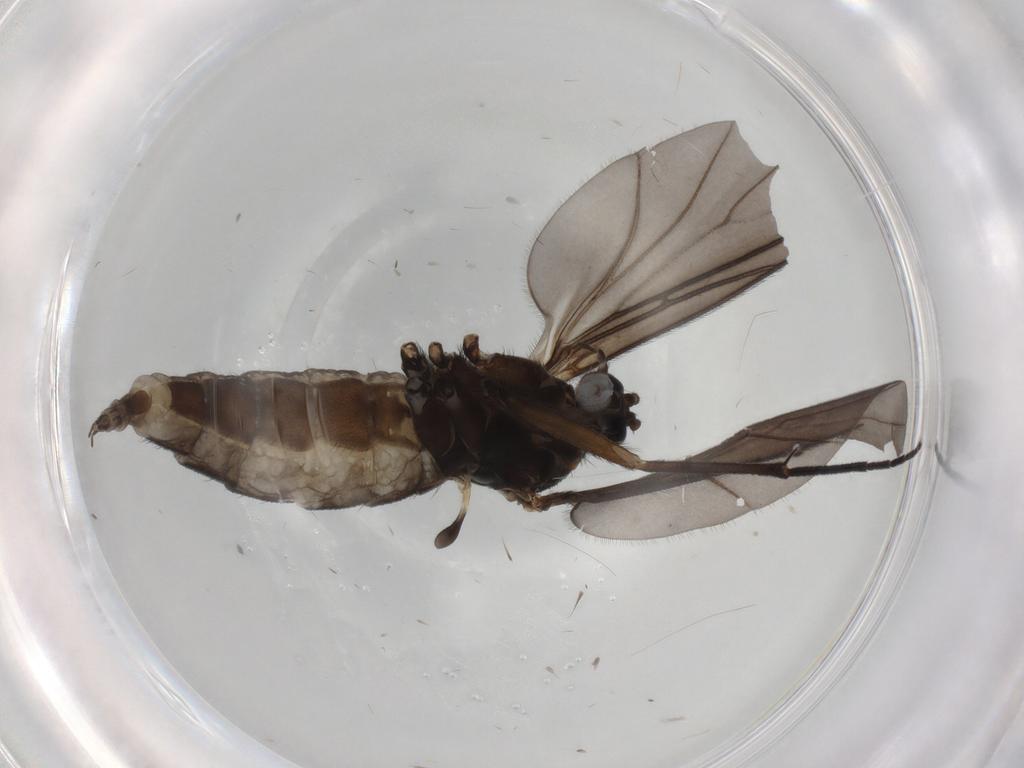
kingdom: Animalia
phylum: Arthropoda
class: Insecta
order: Diptera
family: Sciaridae
